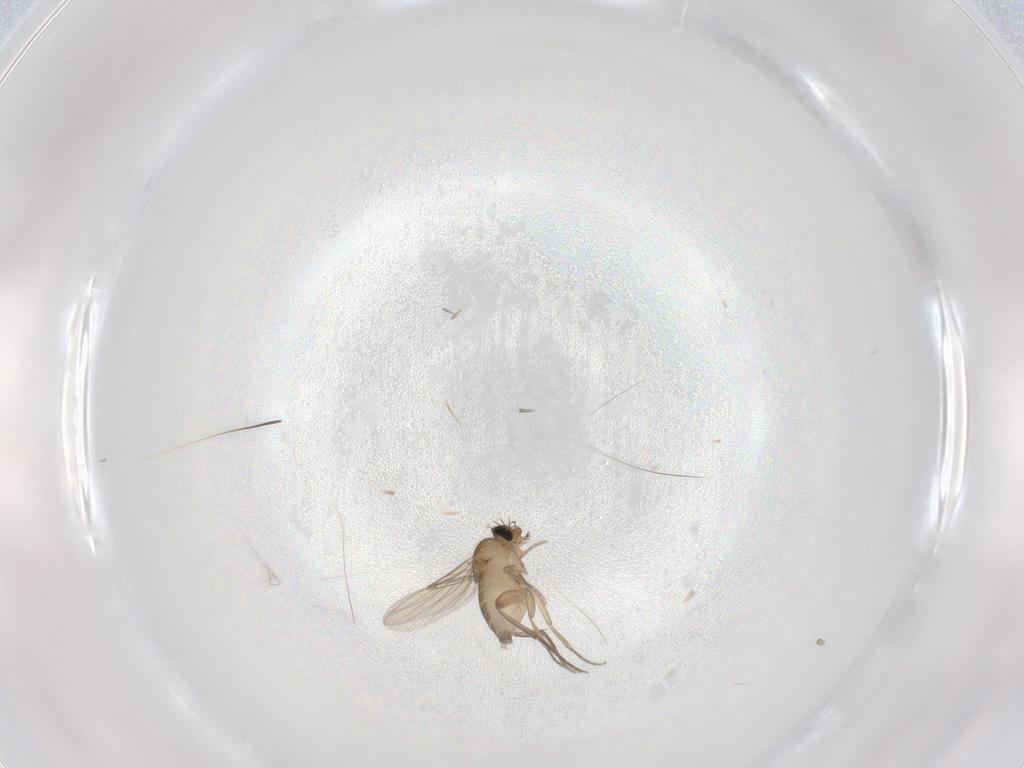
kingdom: Animalia
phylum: Arthropoda
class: Insecta
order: Diptera
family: Phoridae
